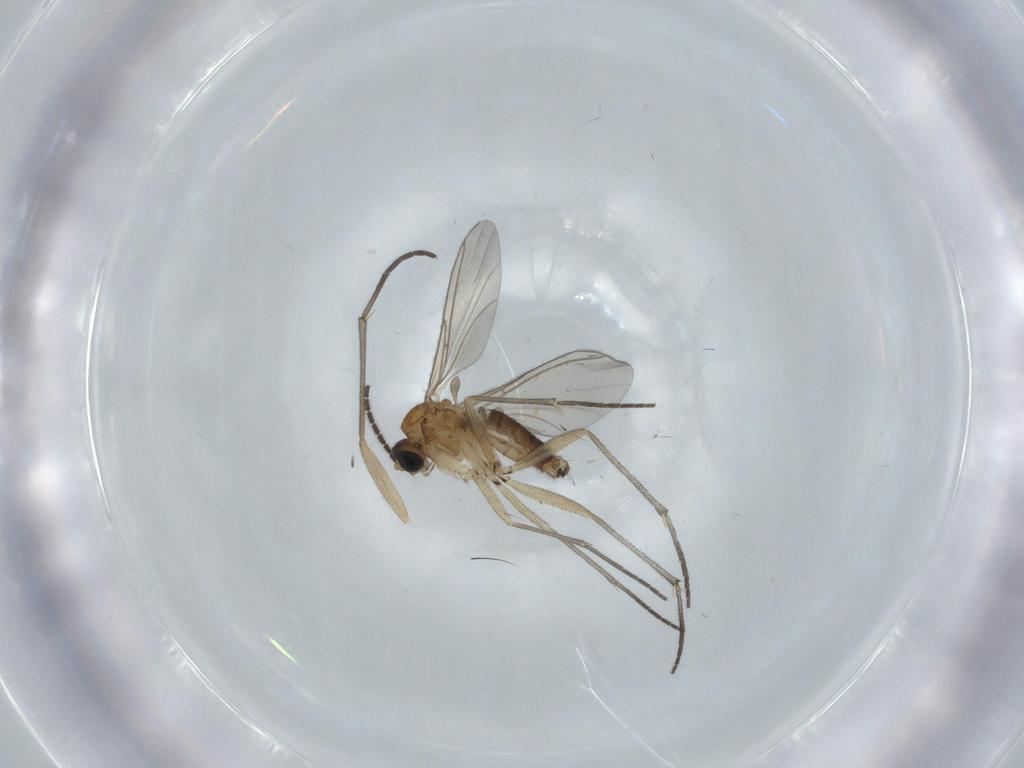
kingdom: Animalia
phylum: Arthropoda
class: Insecta
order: Diptera
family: Sciaridae
